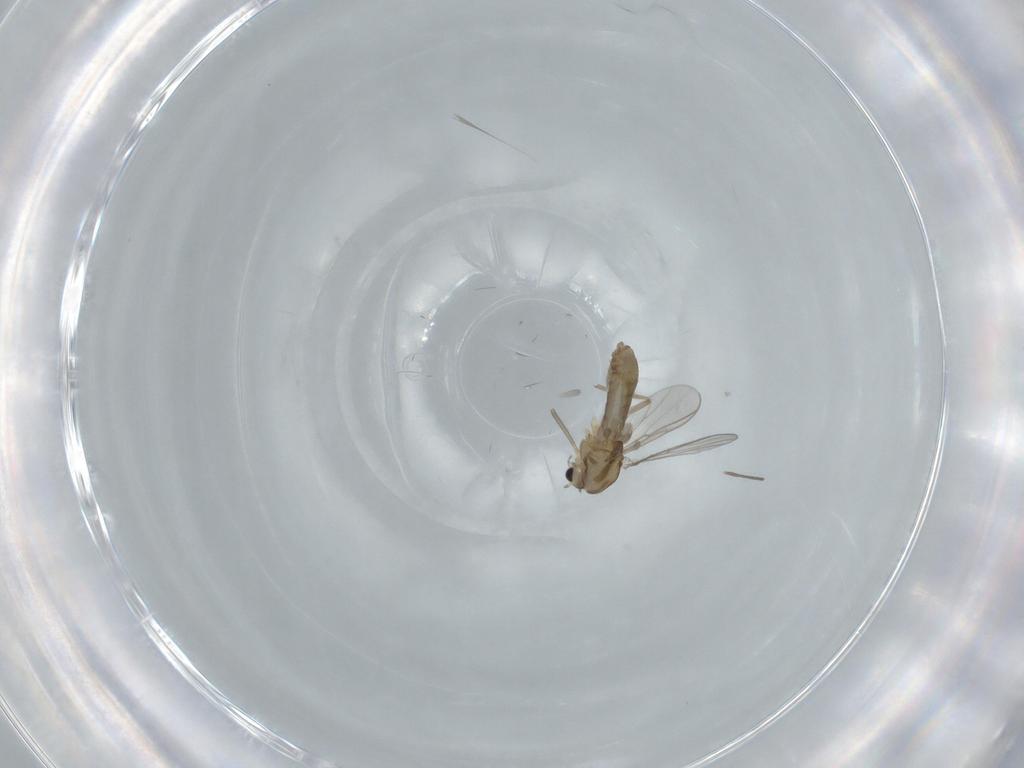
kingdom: Animalia
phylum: Arthropoda
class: Insecta
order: Diptera
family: Chironomidae
